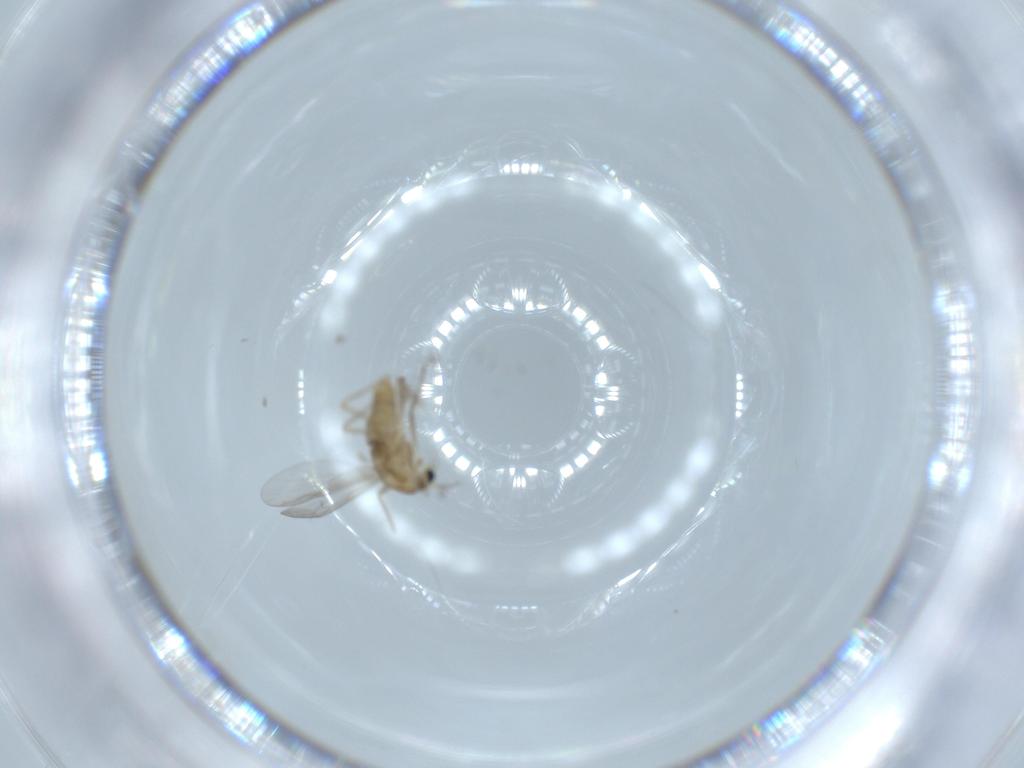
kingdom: Animalia
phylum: Arthropoda
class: Insecta
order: Diptera
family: Chironomidae
